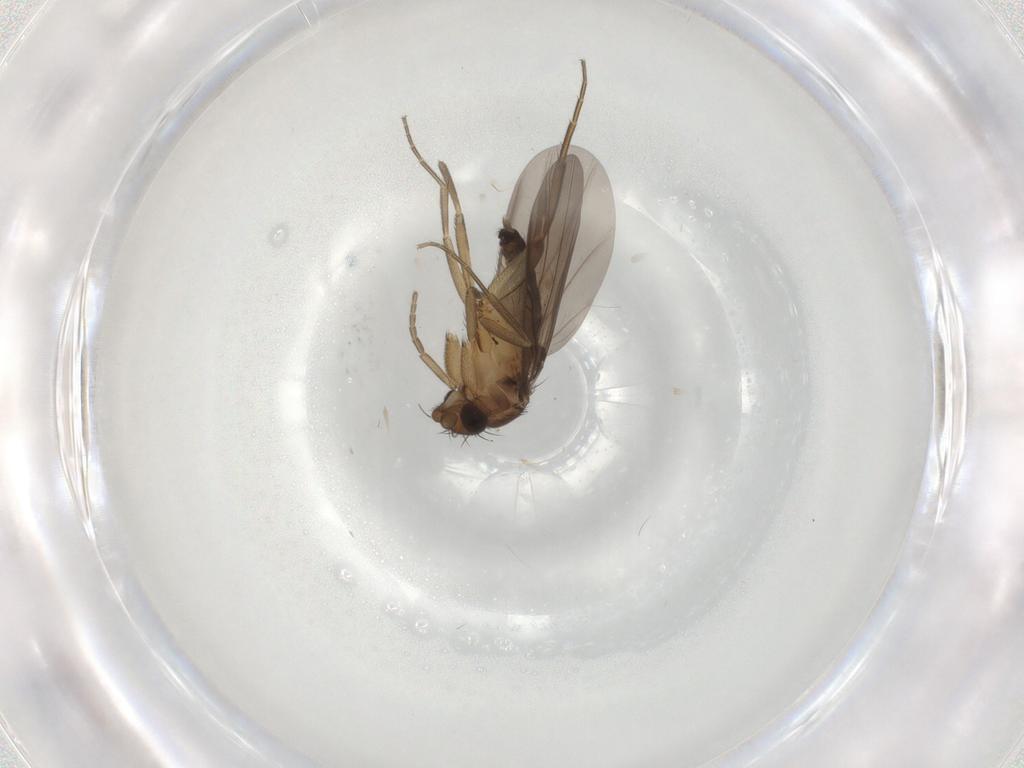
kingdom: Animalia
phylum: Arthropoda
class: Insecta
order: Diptera
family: Phoridae
